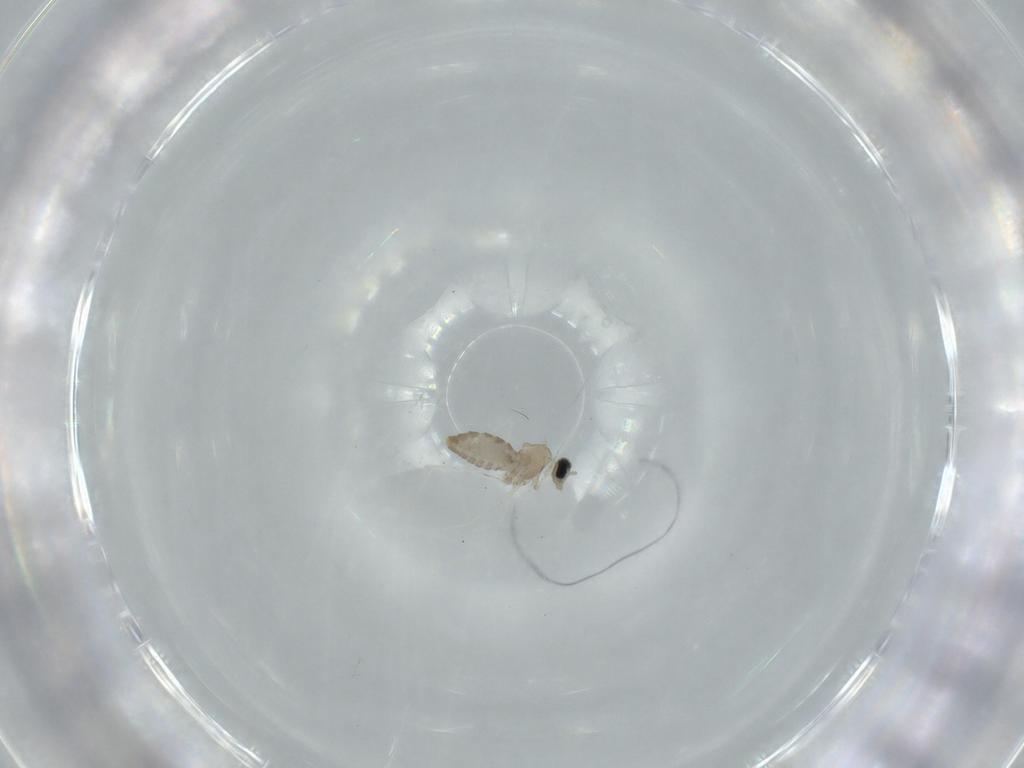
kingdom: Animalia
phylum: Arthropoda
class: Insecta
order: Diptera
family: Cecidomyiidae
